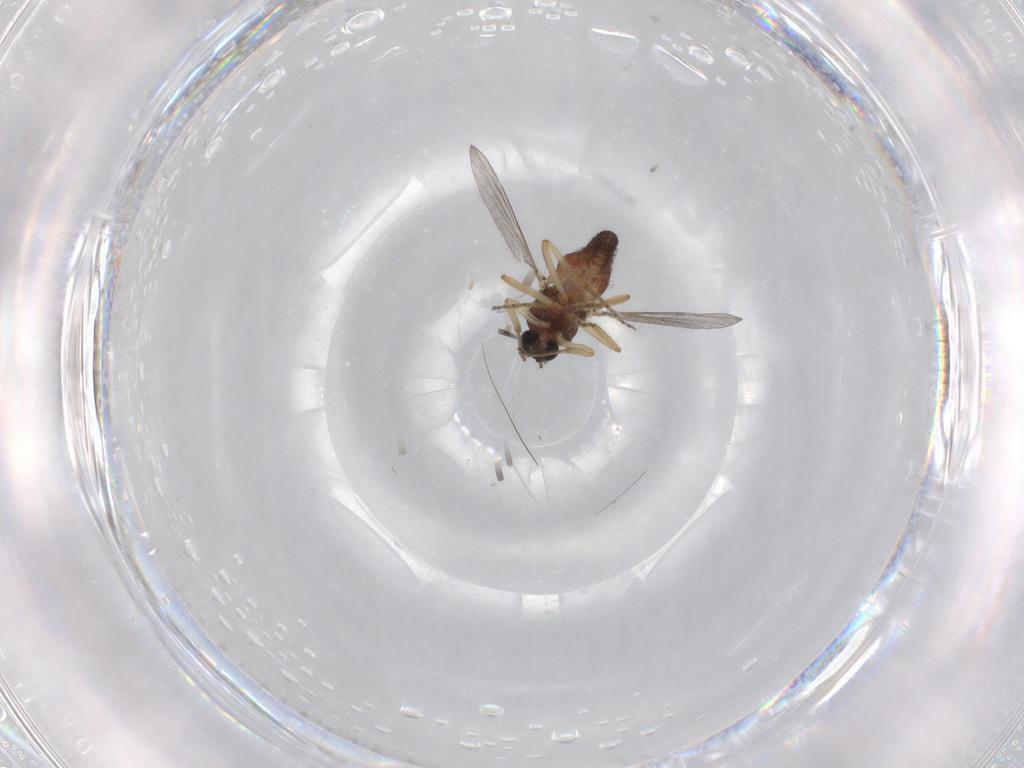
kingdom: Animalia
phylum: Arthropoda
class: Insecta
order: Diptera
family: Ceratopogonidae
